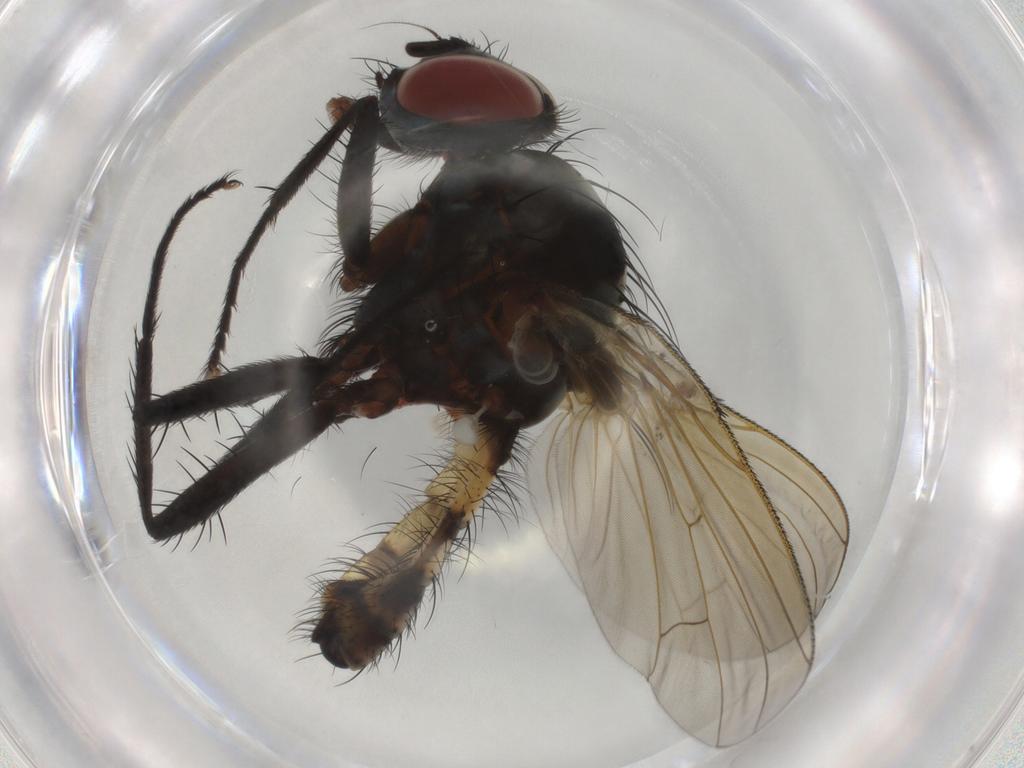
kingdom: Animalia
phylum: Arthropoda
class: Insecta
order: Diptera
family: Anthomyiidae
